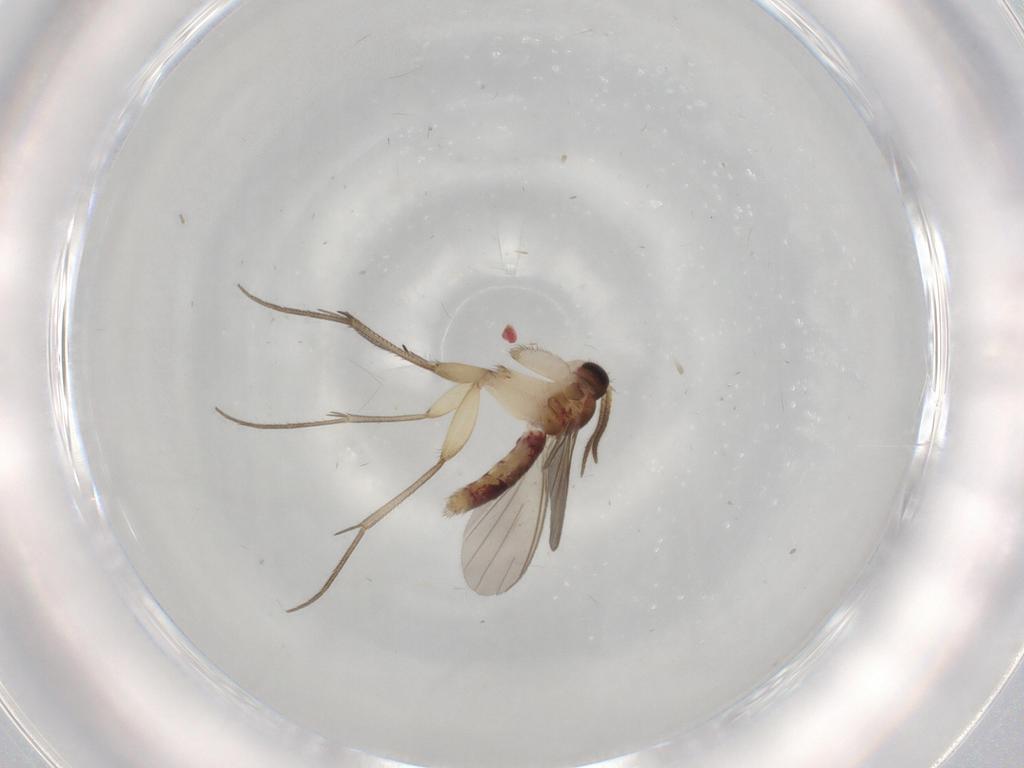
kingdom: Animalia
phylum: Arthropoda
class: Insecta
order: Diptera
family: Mycetophilidae
